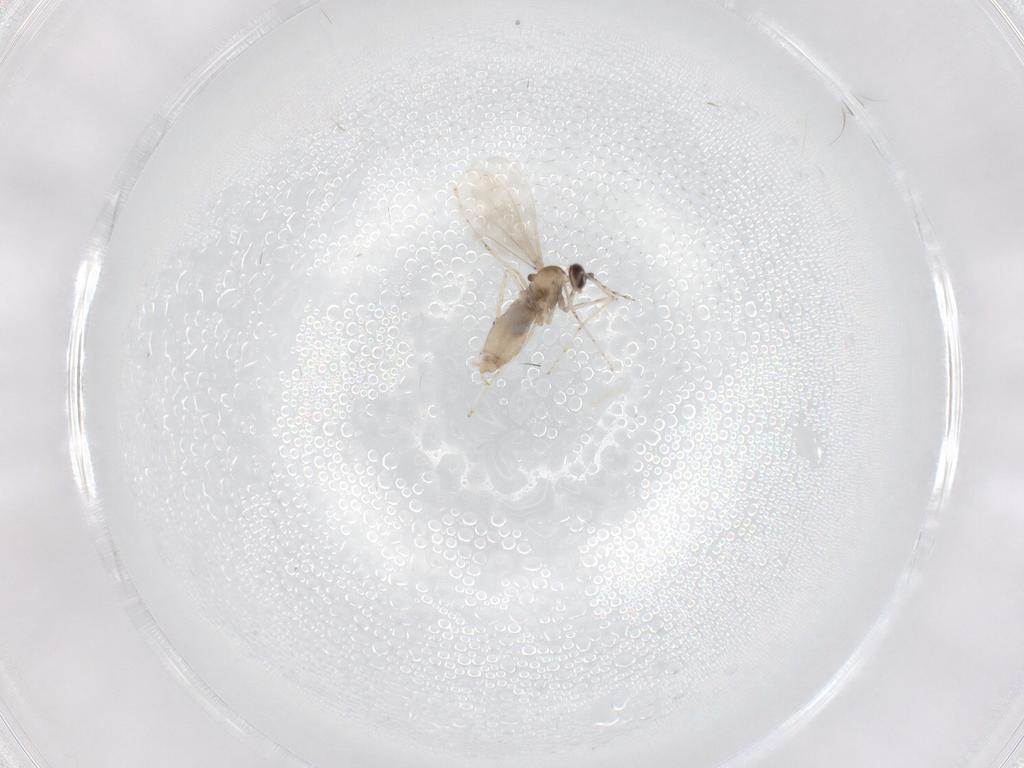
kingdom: Animalia
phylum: Arthropoda
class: Insecta
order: Diptera
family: Cecidomyiidae
